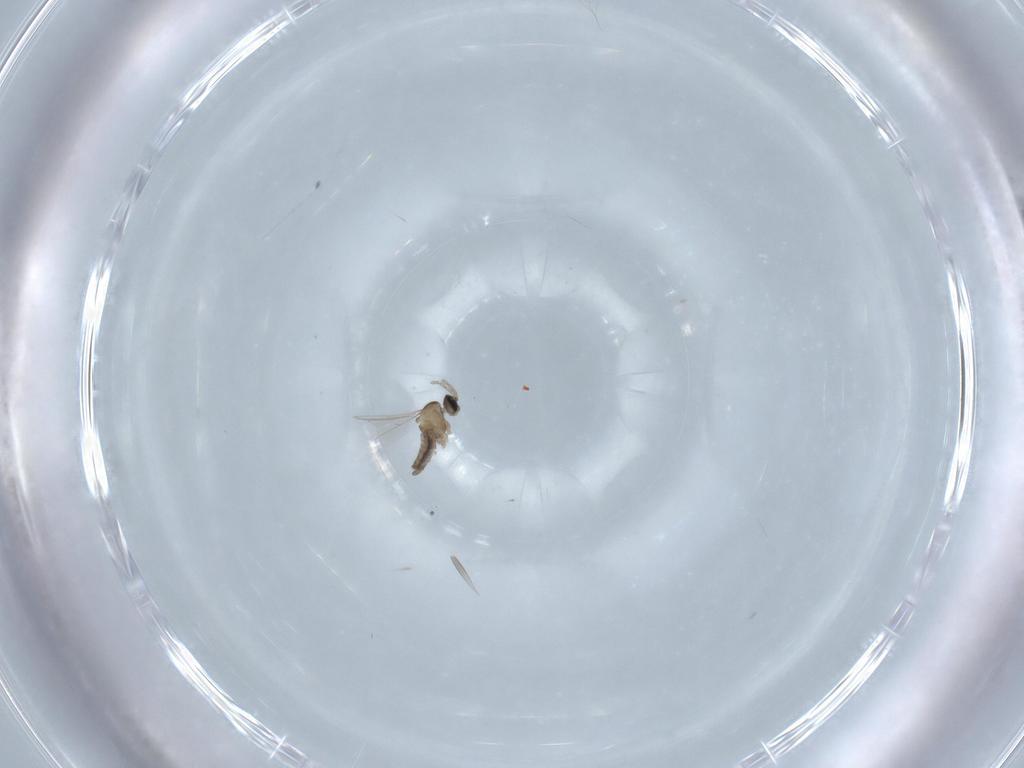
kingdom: Animalia
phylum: Arthropoda
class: Insecta
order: Diptera
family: Cecidomyiidae
